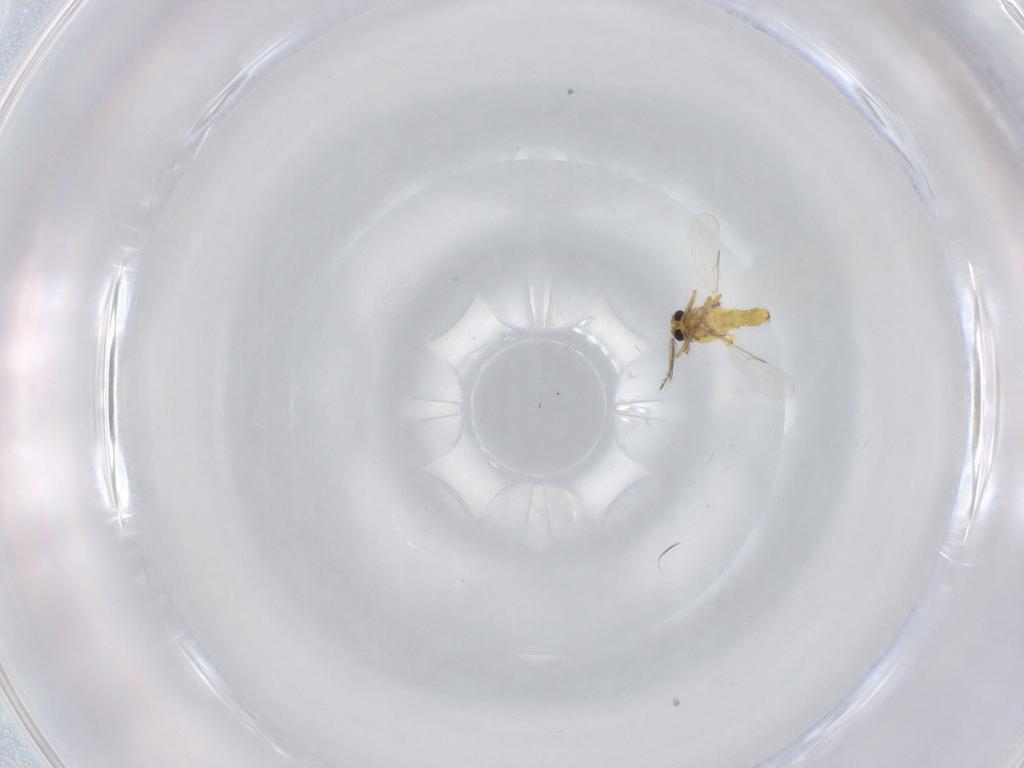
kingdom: Animalia
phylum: Arthropoda
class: Insecta
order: Diptera
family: Ceratopogonidae
